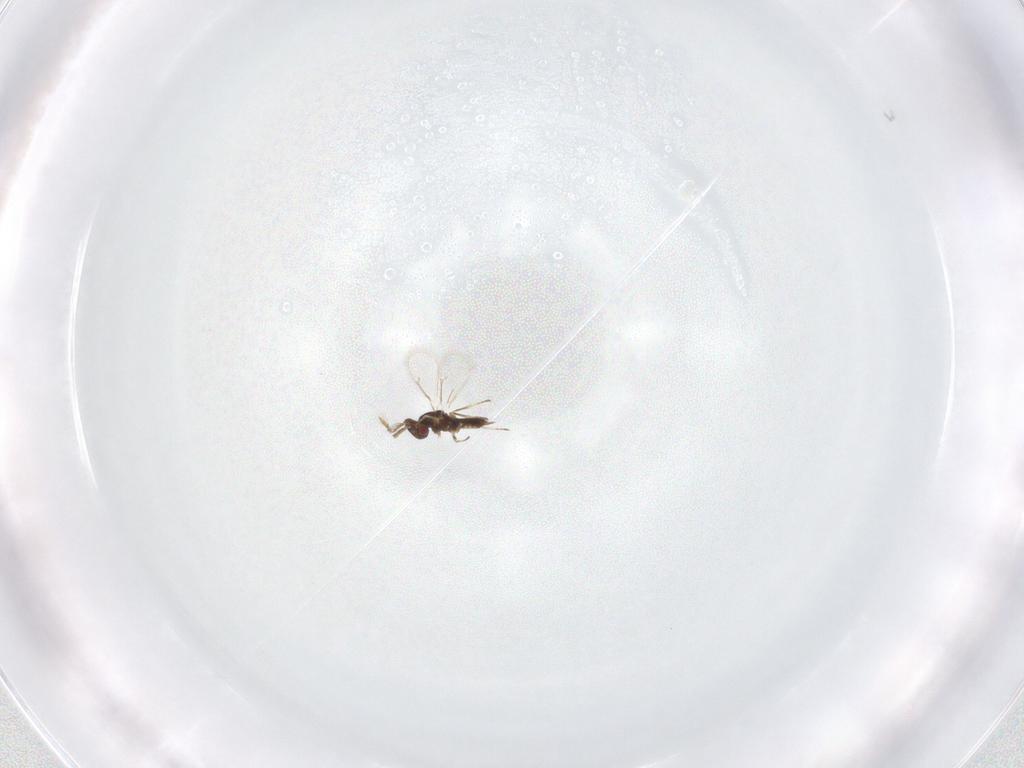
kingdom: Animalia
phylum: Arthropoda
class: Insecta
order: Hymenoptera
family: Eulophidae
